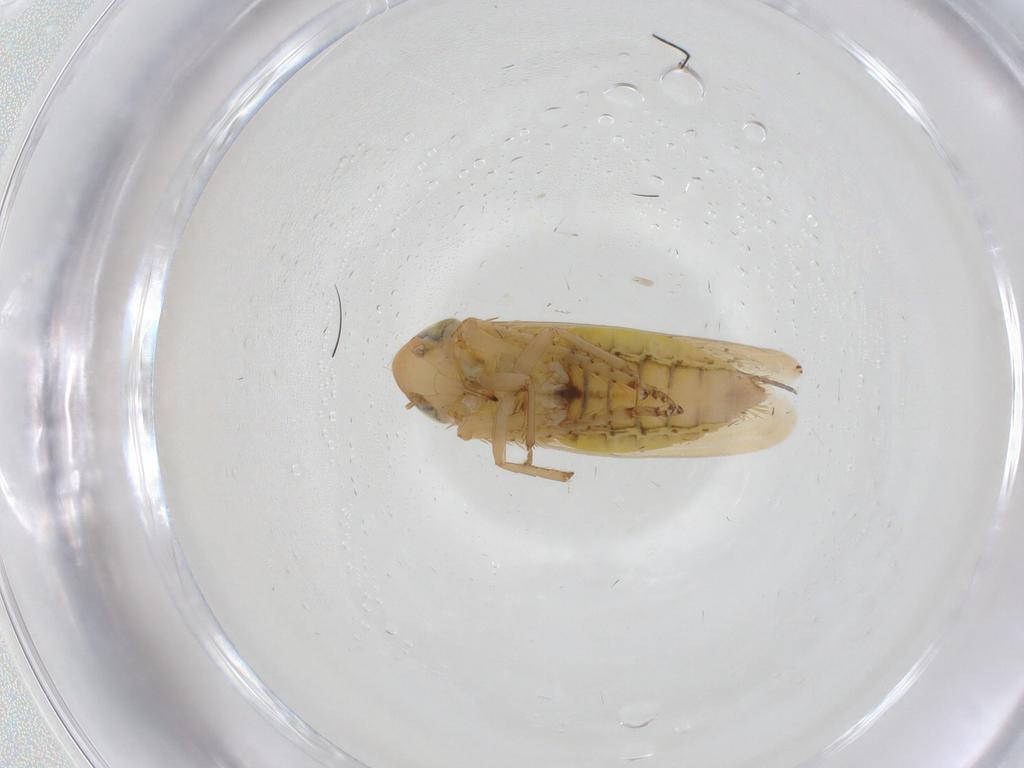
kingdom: Animalia
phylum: Arthropoda
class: Insecta
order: Hemiptera
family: Cicadellidae
